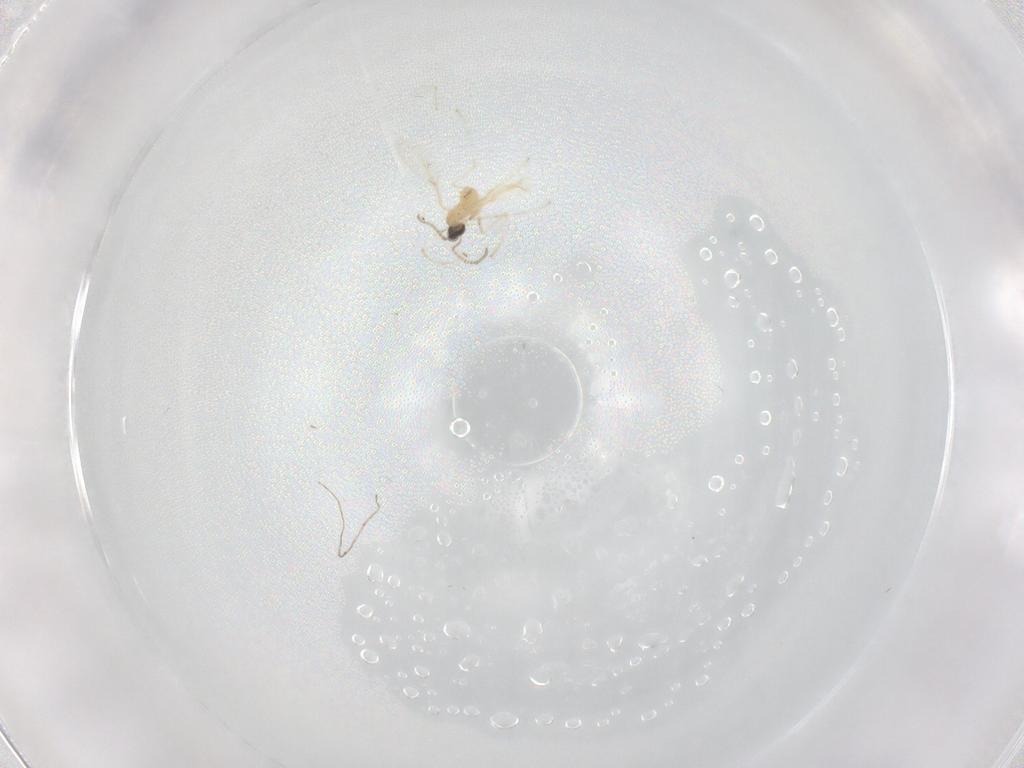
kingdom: Animalia
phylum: Arthropoda
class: Insecta
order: Diptera
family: Cecidomyiidae
